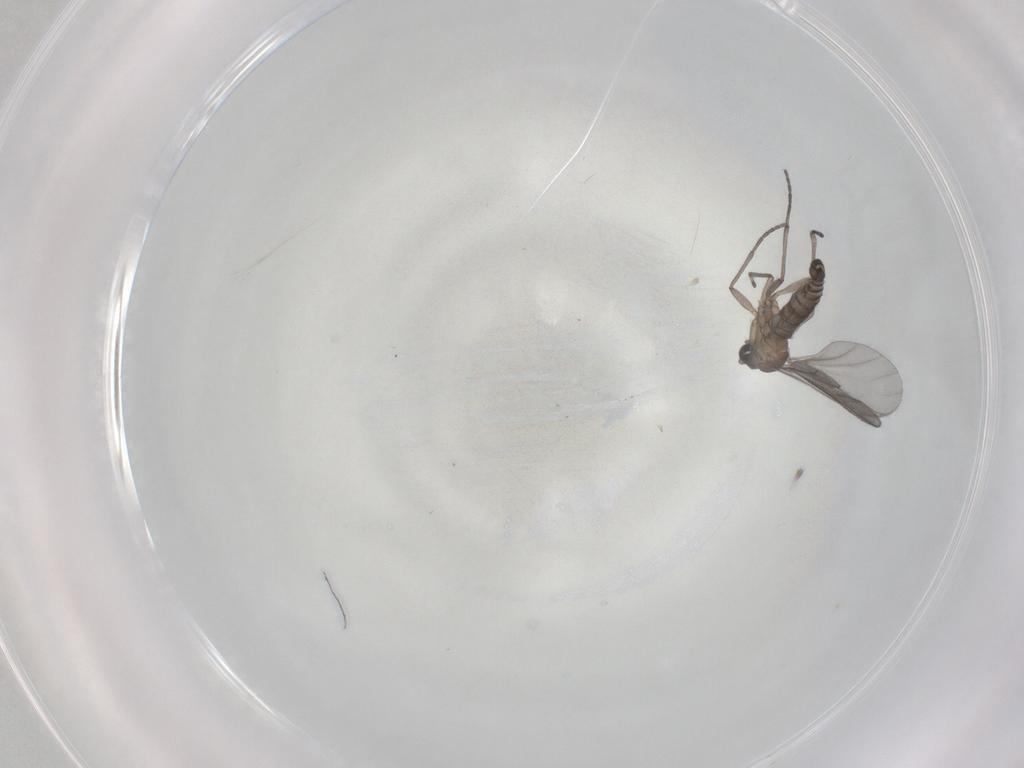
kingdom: Animalia
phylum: Arthropoda
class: Insecta
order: Diptera
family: Sciaridae
